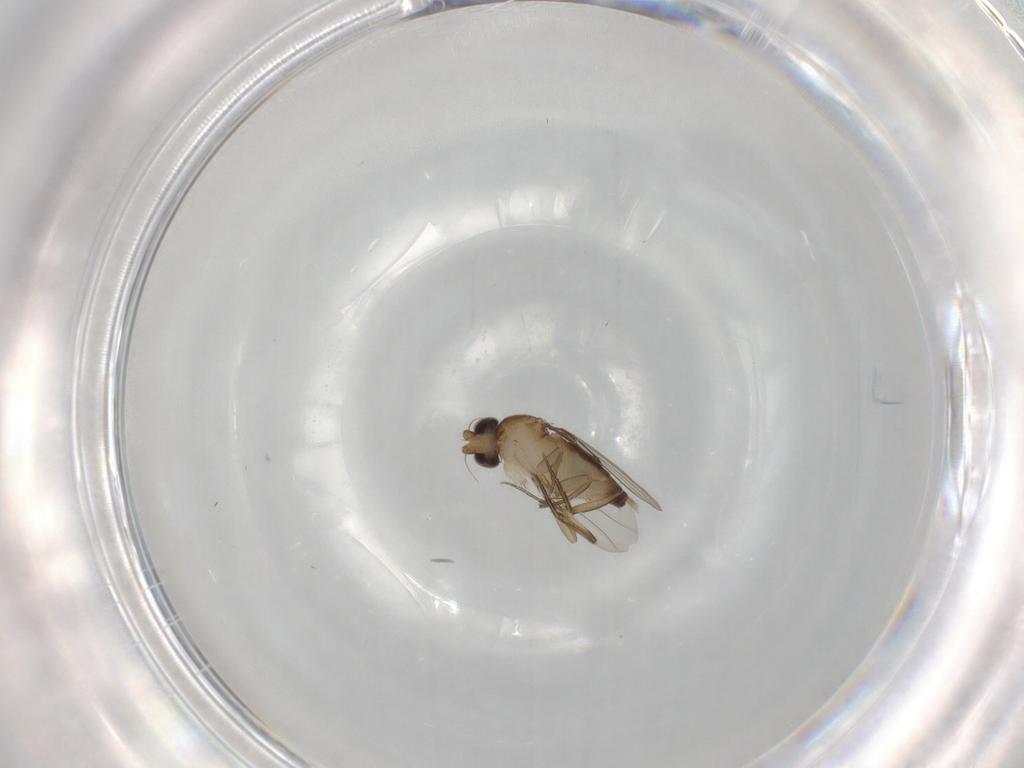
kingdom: Animalia
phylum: Arthropoda
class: Insecta
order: Diptera
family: Phoridae
